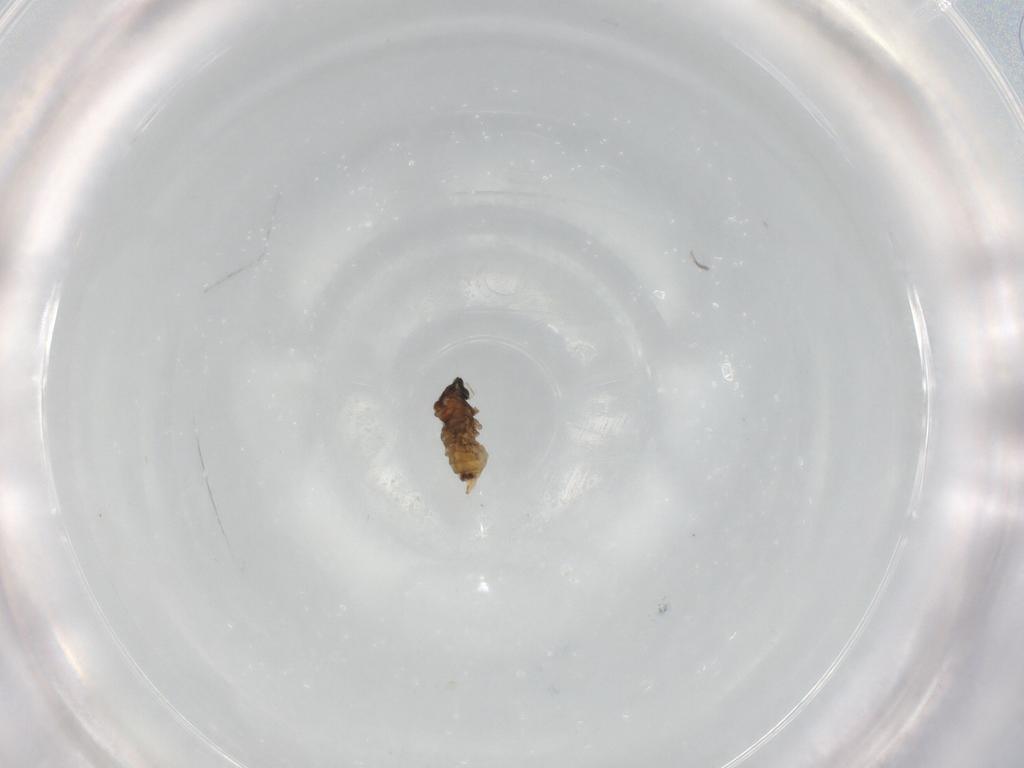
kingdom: Animalia
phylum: Arthropoda
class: Insecta
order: Diptera
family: Cecidomyiidae
